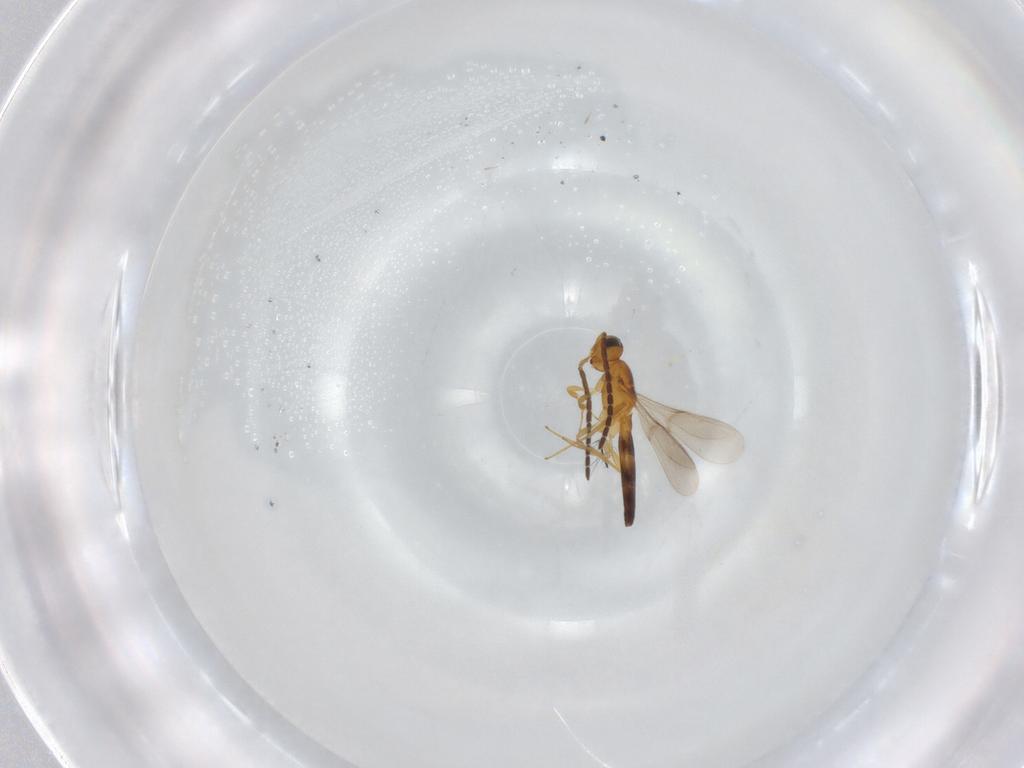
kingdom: Animalia
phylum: Arthropoda
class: Insecta
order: Hymenoptera
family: Scelionidae
